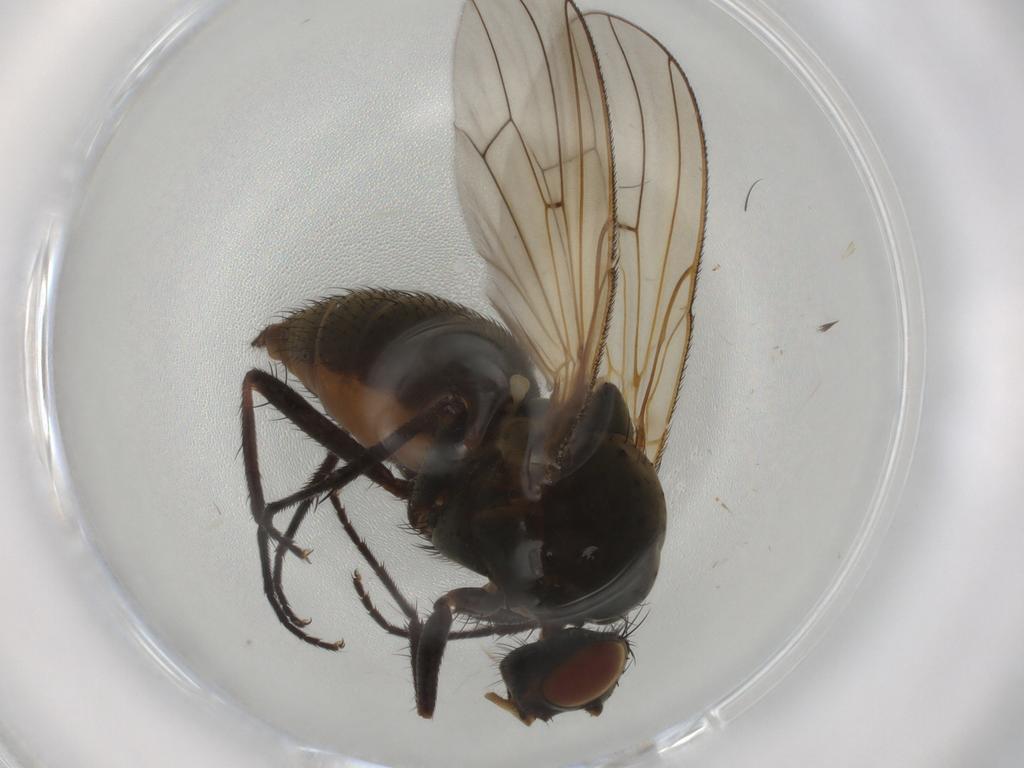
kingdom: Animalia
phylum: Arthropoda
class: Insecta
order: Diptera
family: Anthomyiidae
